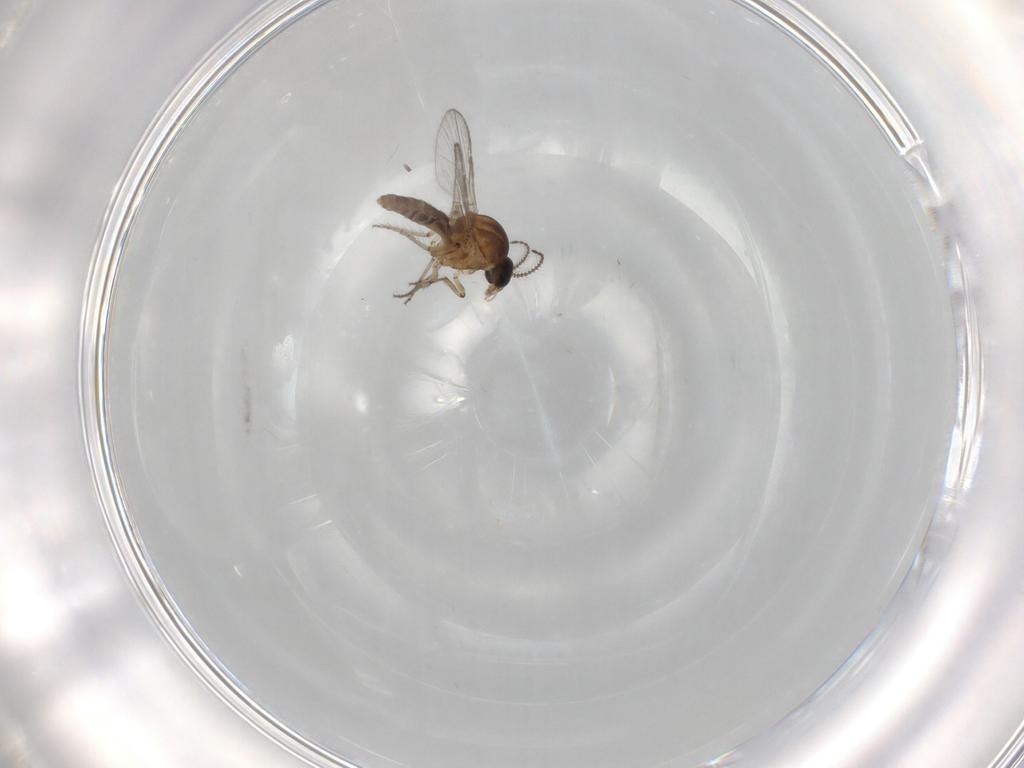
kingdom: Animalia
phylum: Arthropoda
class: Insecta
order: Diptera
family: Ceratopogonidae
